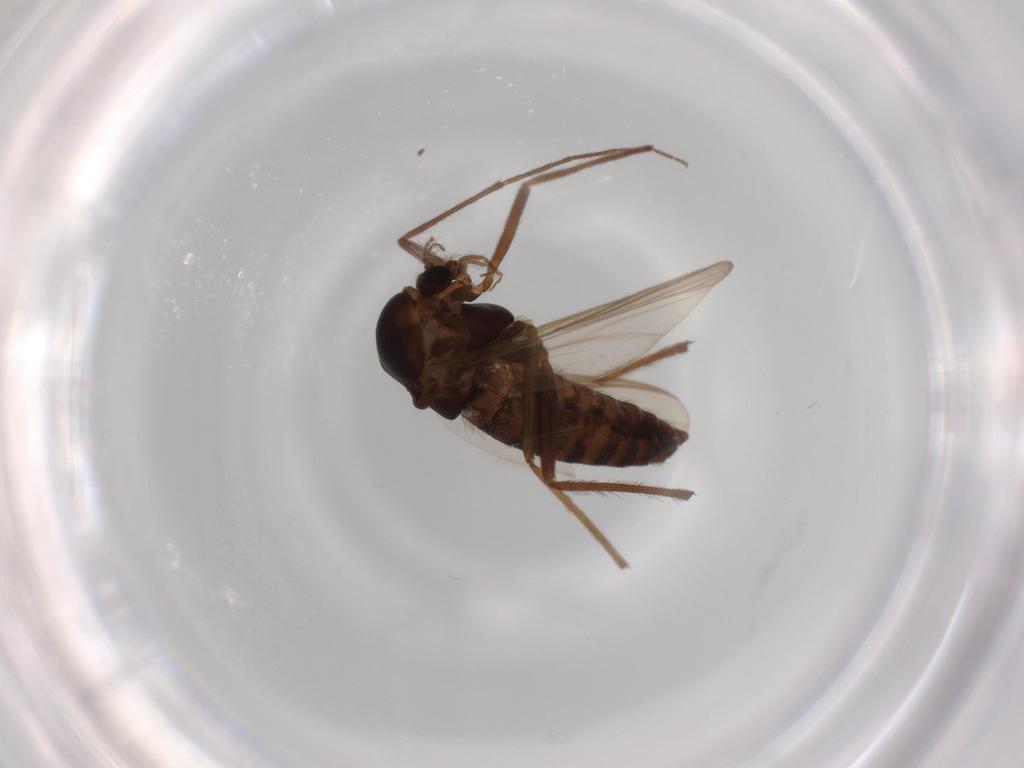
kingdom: Animalia
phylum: Arthropoda
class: Insecta
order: Diptera
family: Chironomidae
